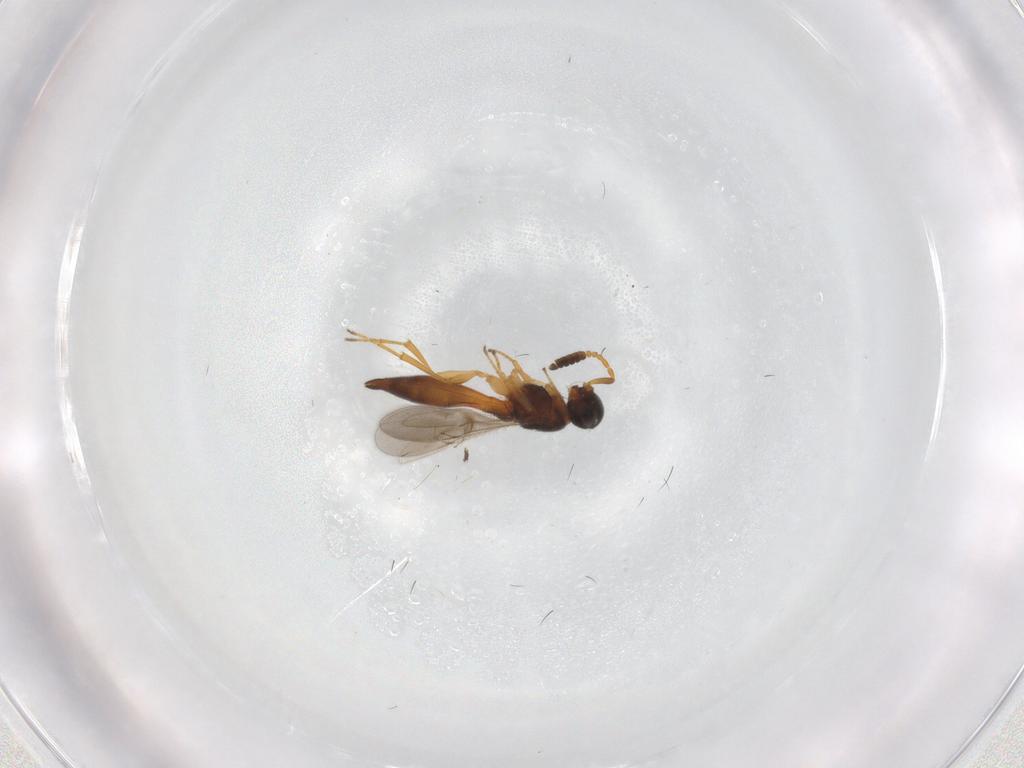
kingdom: Animalia
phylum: Arthropoda
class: Insecta
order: Hymenoptera
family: Scelionidae
